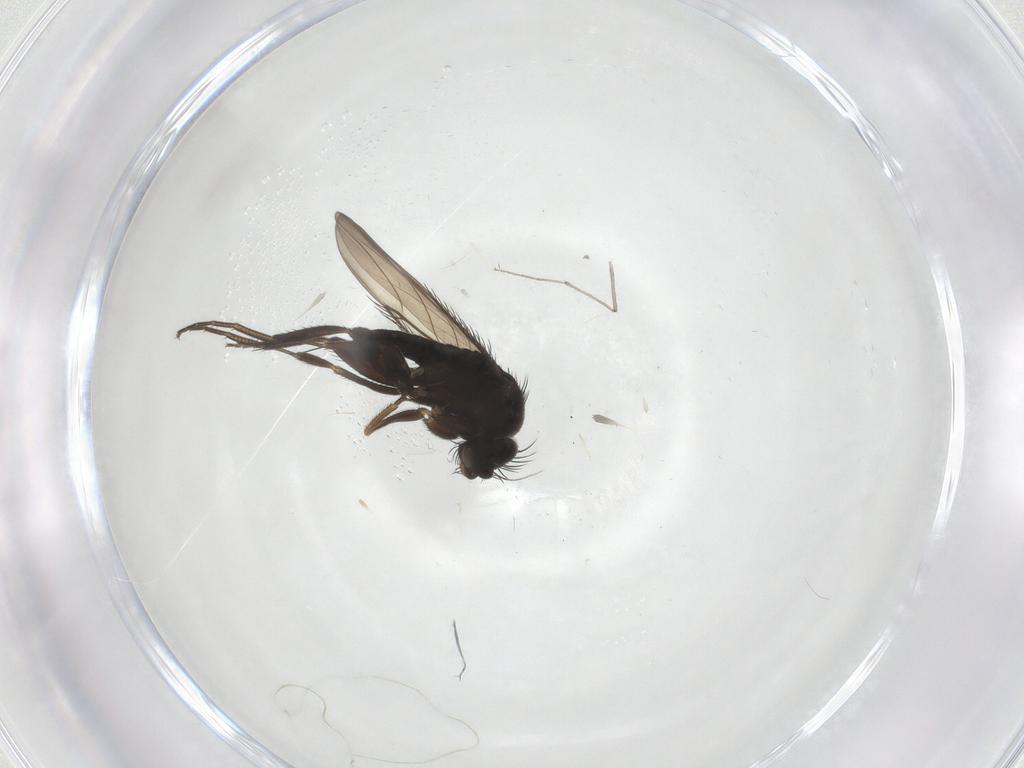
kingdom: Animalia
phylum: Arthropoda
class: Insecta
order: Diptera
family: Phoridae
